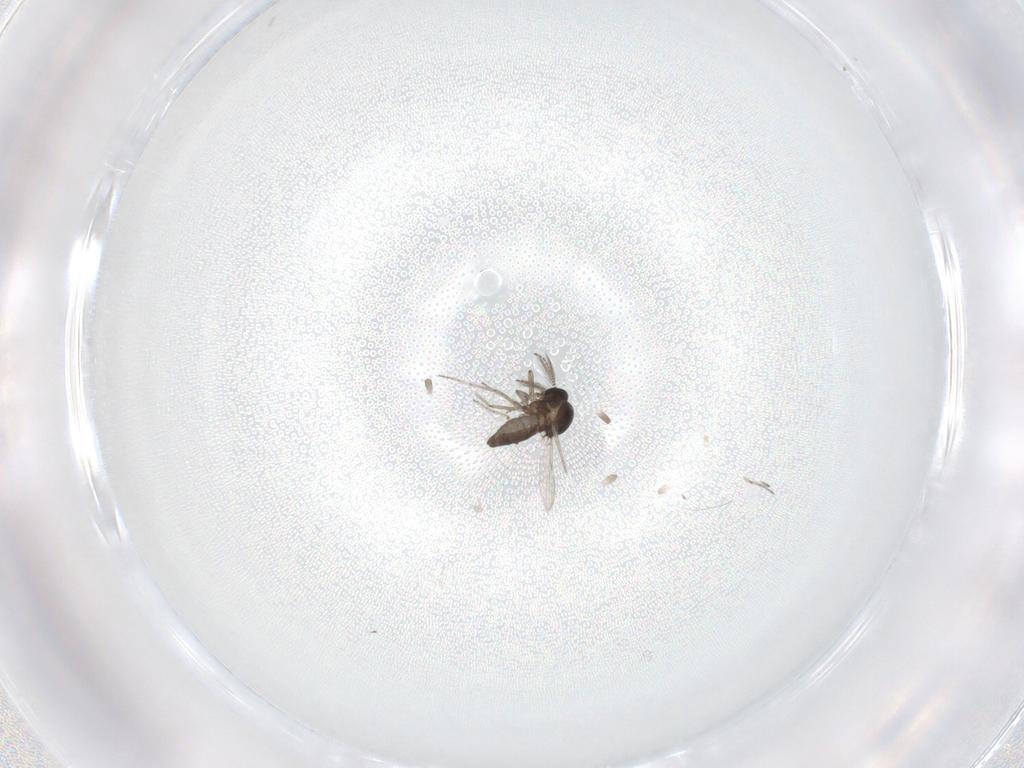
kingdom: Animalia
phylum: Arthropoda
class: Insecta
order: Diptera
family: Ceratopogonidae
